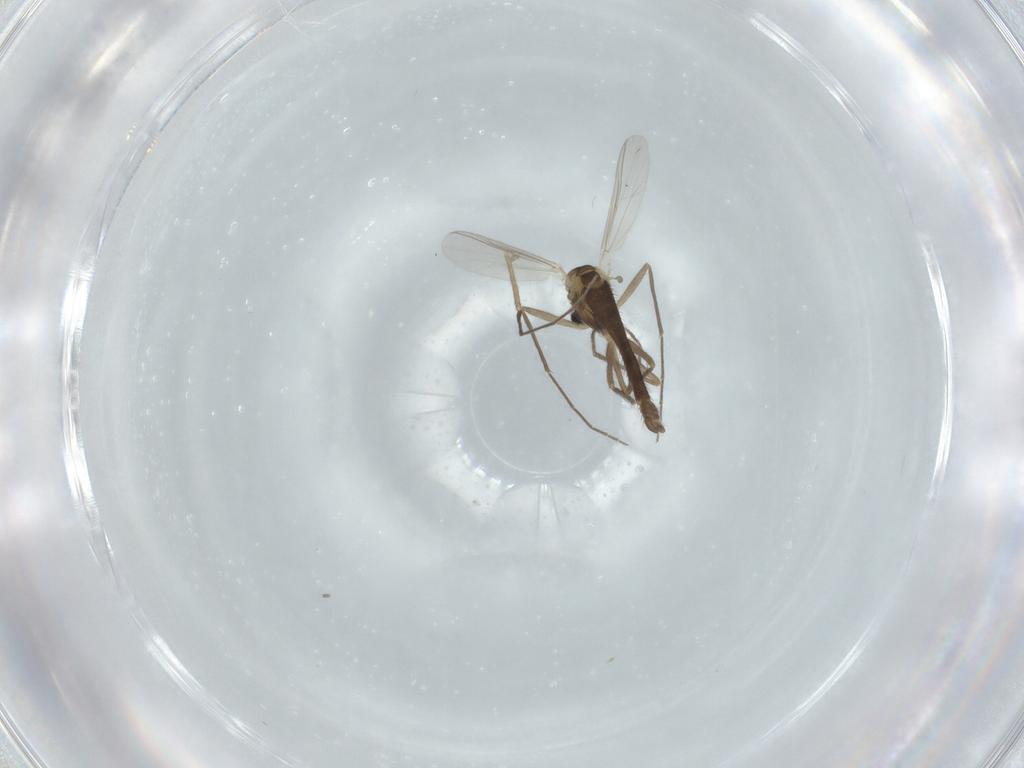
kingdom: Animalia
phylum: Arthropoda
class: Insecta
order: Diptera
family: Chironomidae
